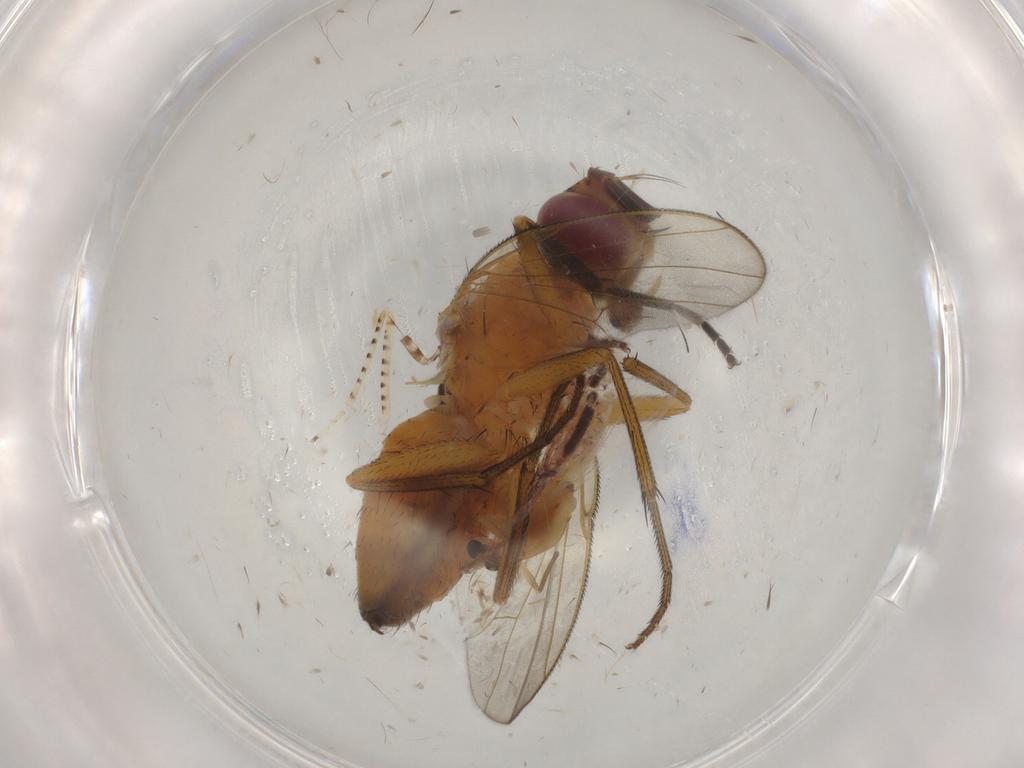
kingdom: Animalia
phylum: Arthropoda
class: Insecta
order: Diptera
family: Muscidae
